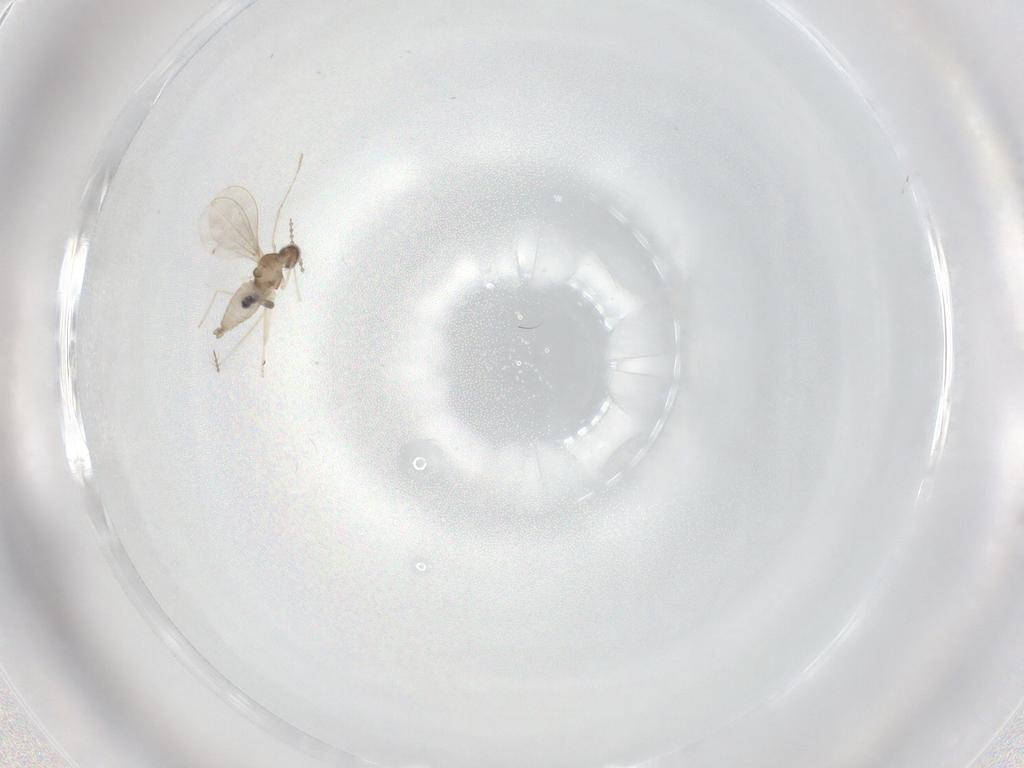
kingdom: Animalia
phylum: Arthropoda
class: Insecta
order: Diptera
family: Chironomidae
